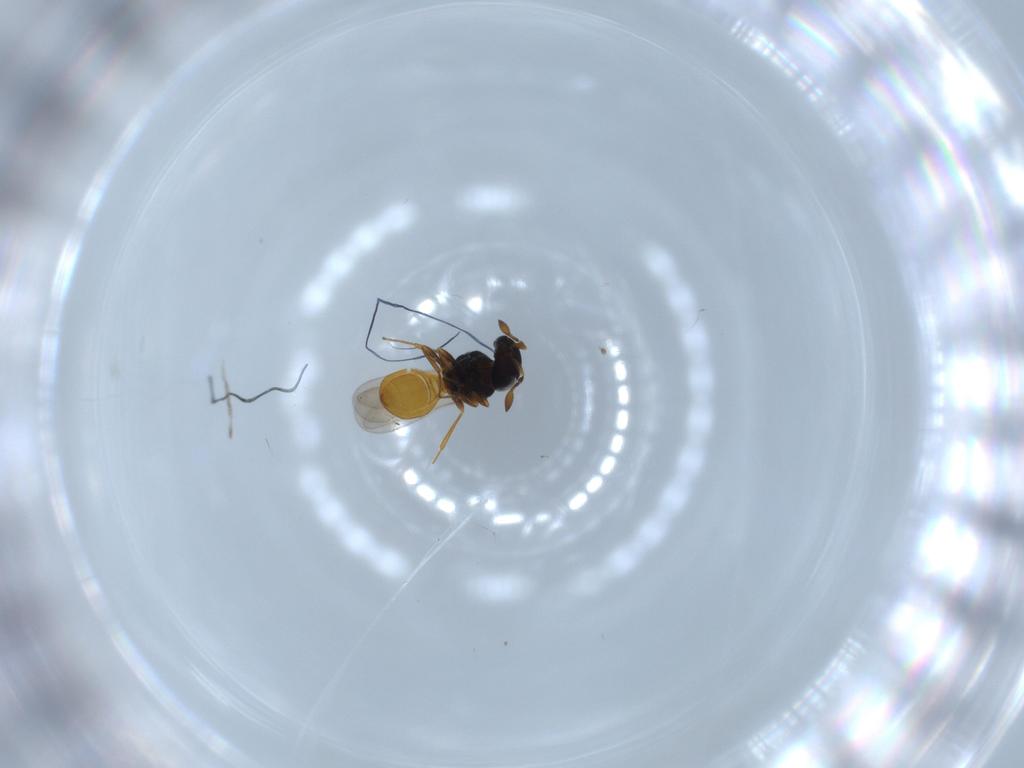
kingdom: Animalia
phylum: Arthropoda
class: Insecta
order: Hymenoptera
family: Scelionidae
